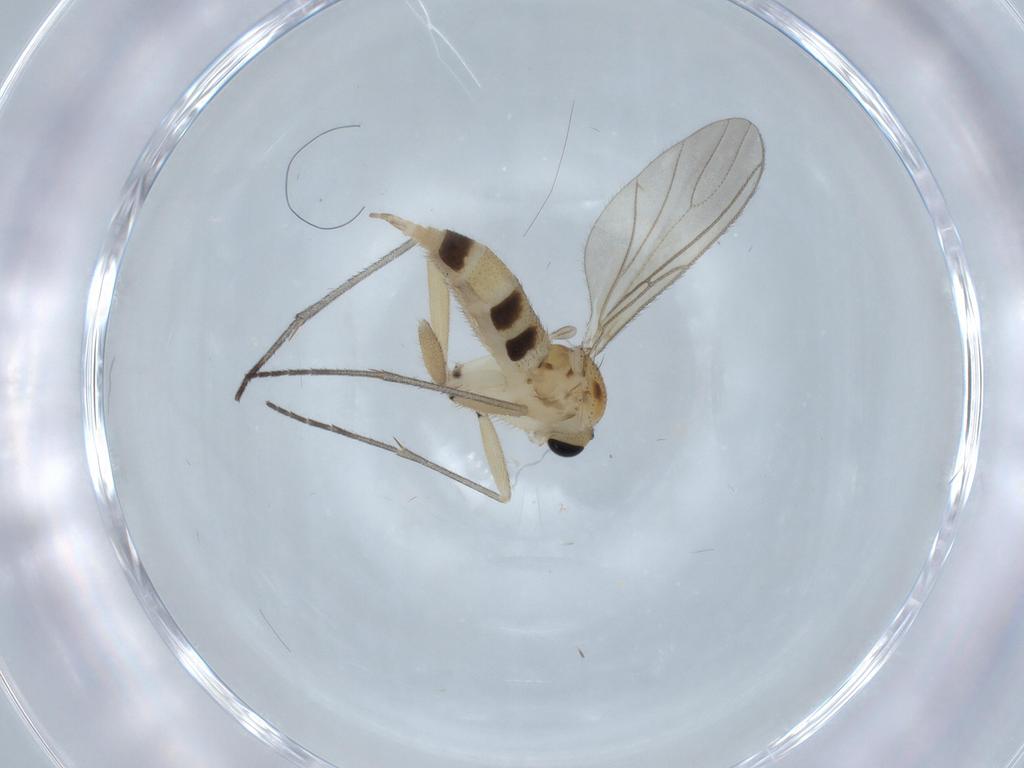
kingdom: Animalia
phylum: Arthropoda
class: Insecta
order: Diptera
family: Sciaridae
